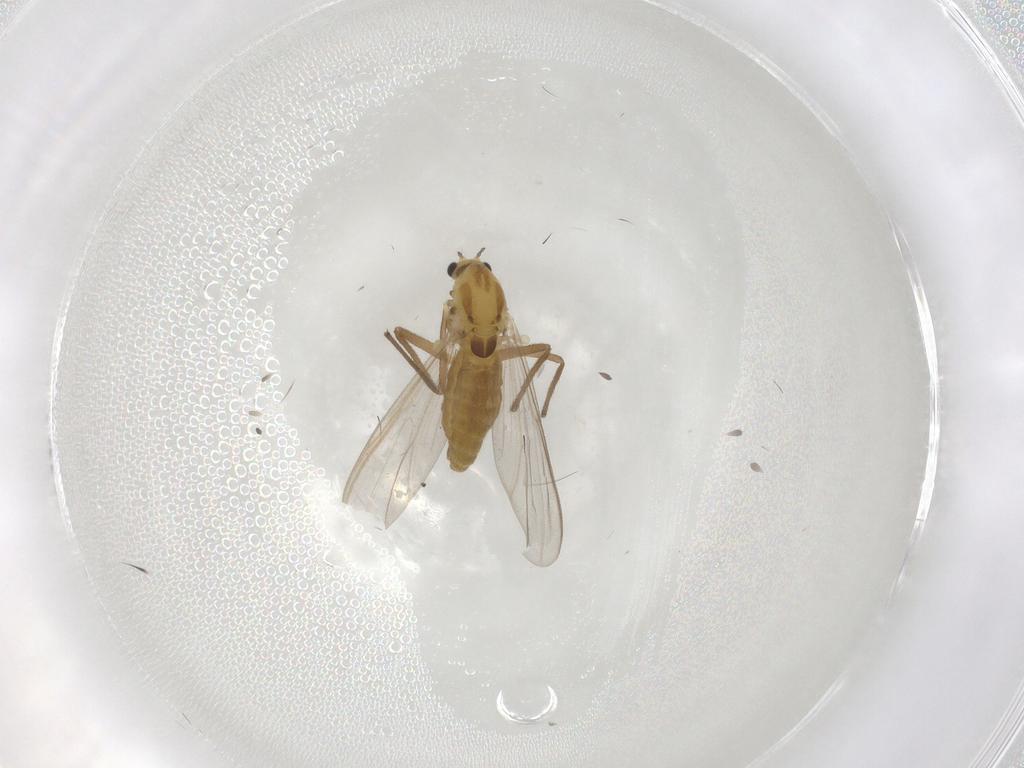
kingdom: Animalia
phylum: Arthropoda
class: Insecta
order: Diptera
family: Chironomidae
